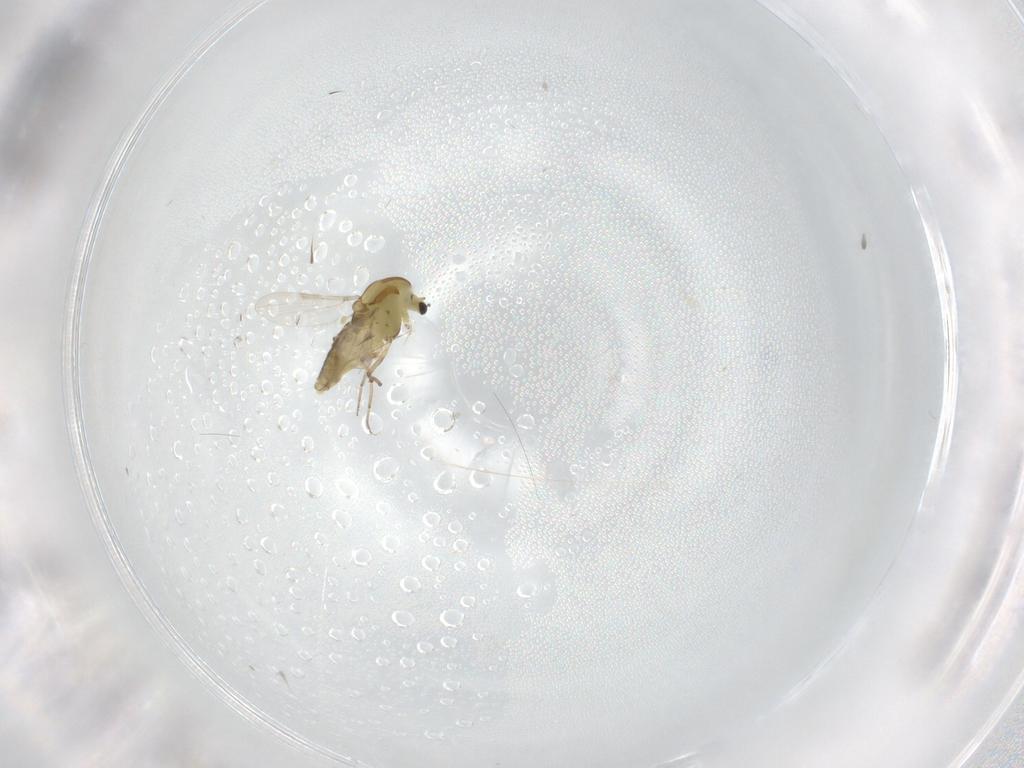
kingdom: Animalia
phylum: Arthropoda
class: Insecta
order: Diptera
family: Chironomidae
